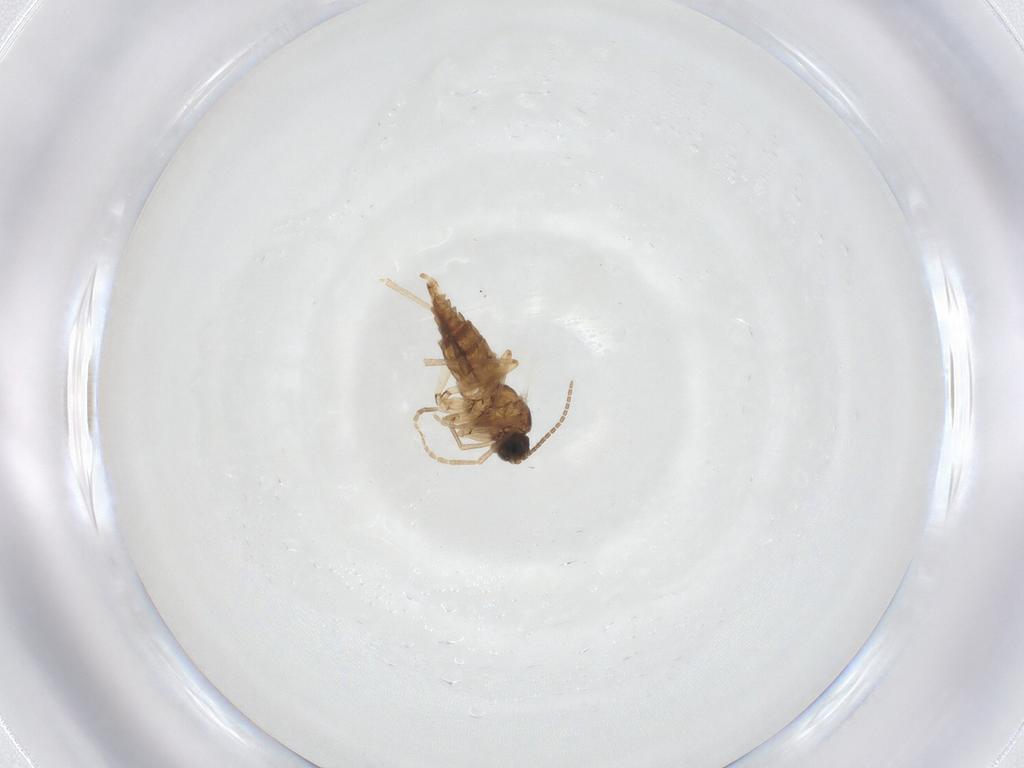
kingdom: Animalia
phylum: Arthropoda
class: Insecta
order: Diptera
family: Sciaridae
